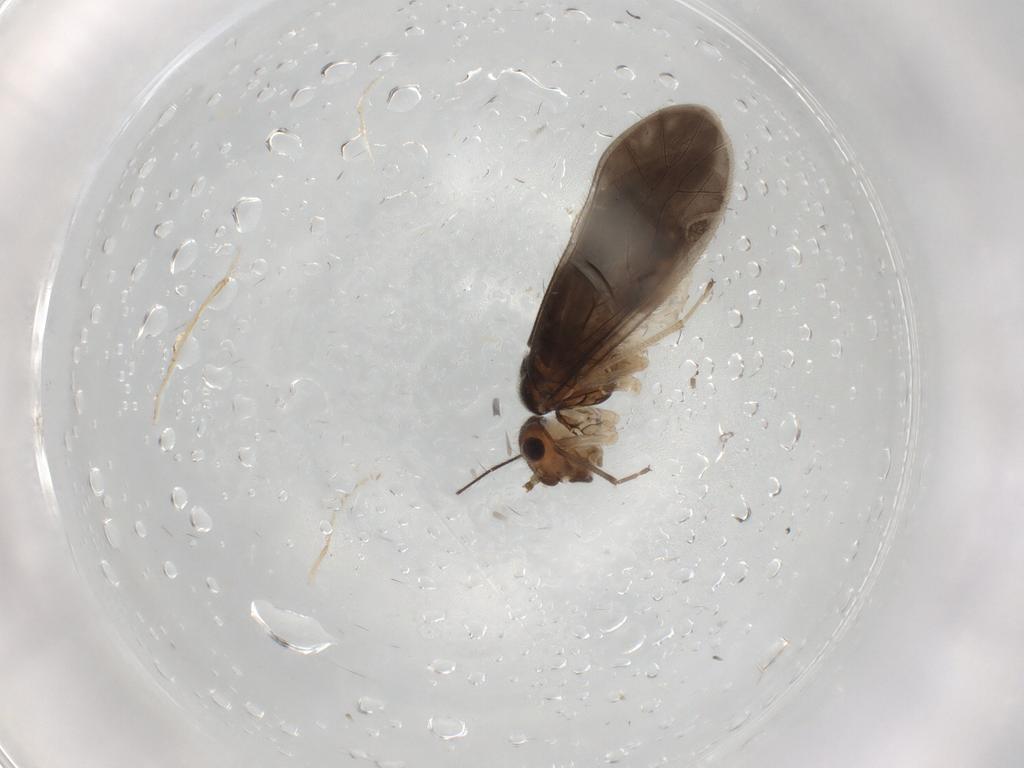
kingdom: Animalia
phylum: Arthropoda
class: Insecta
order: Psocodea
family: Caeciliusidae
